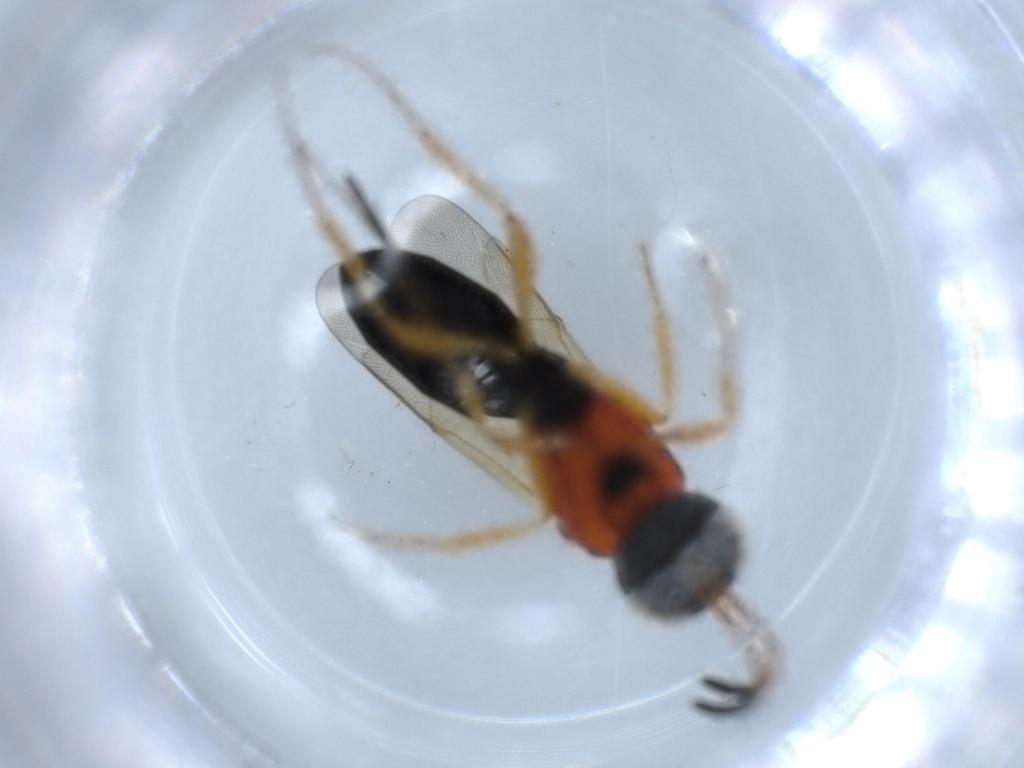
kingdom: Animalia
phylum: Arthropoda
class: Insecta
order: Hymenoptera
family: Scelionidae
